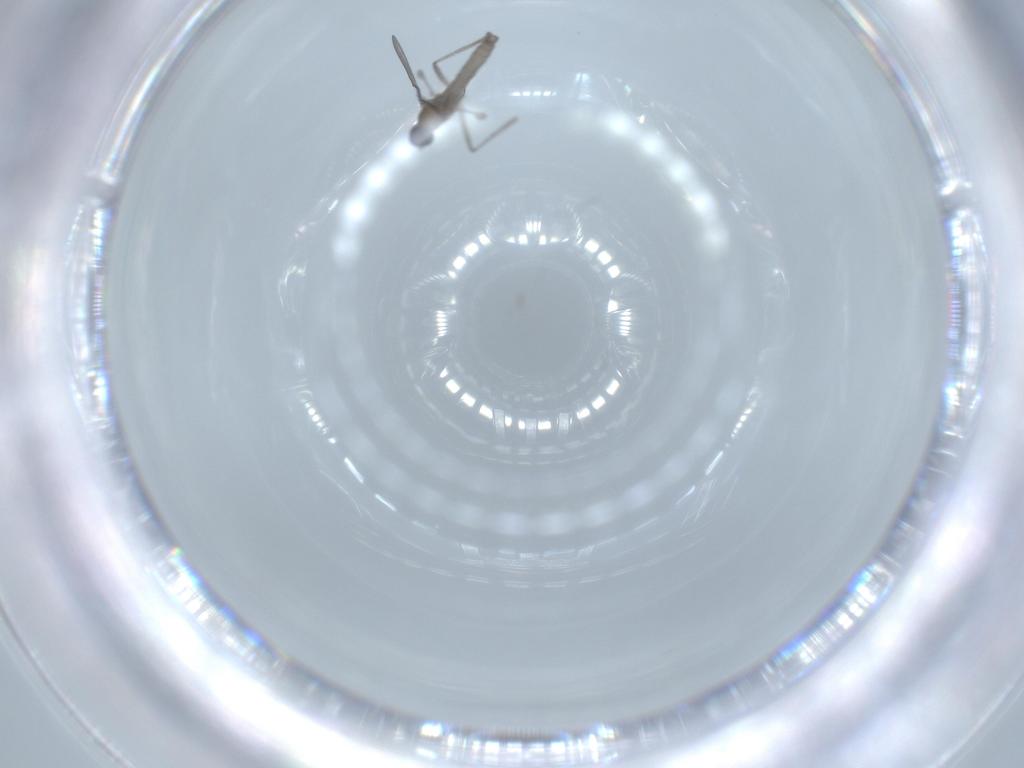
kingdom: Animalia
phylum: Arthropoda
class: Insecta
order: Diptera
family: Cecidomyiidae
